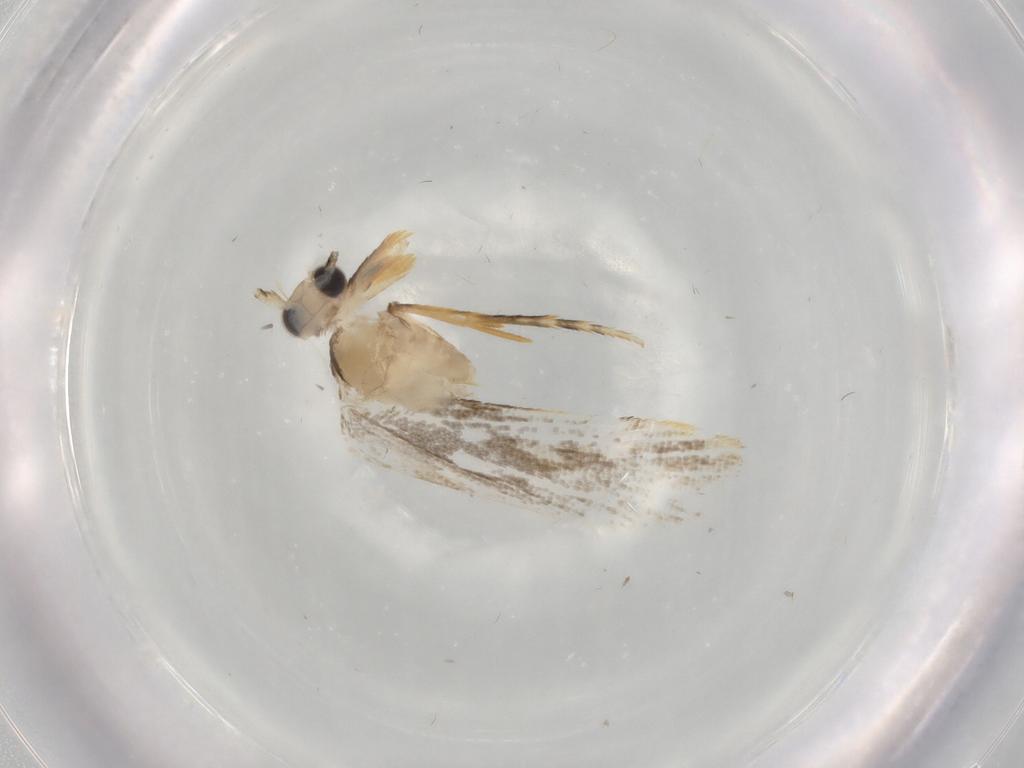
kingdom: Animalia
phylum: Arthropoda
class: Insecta
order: Lepidoptera
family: Tineidae
